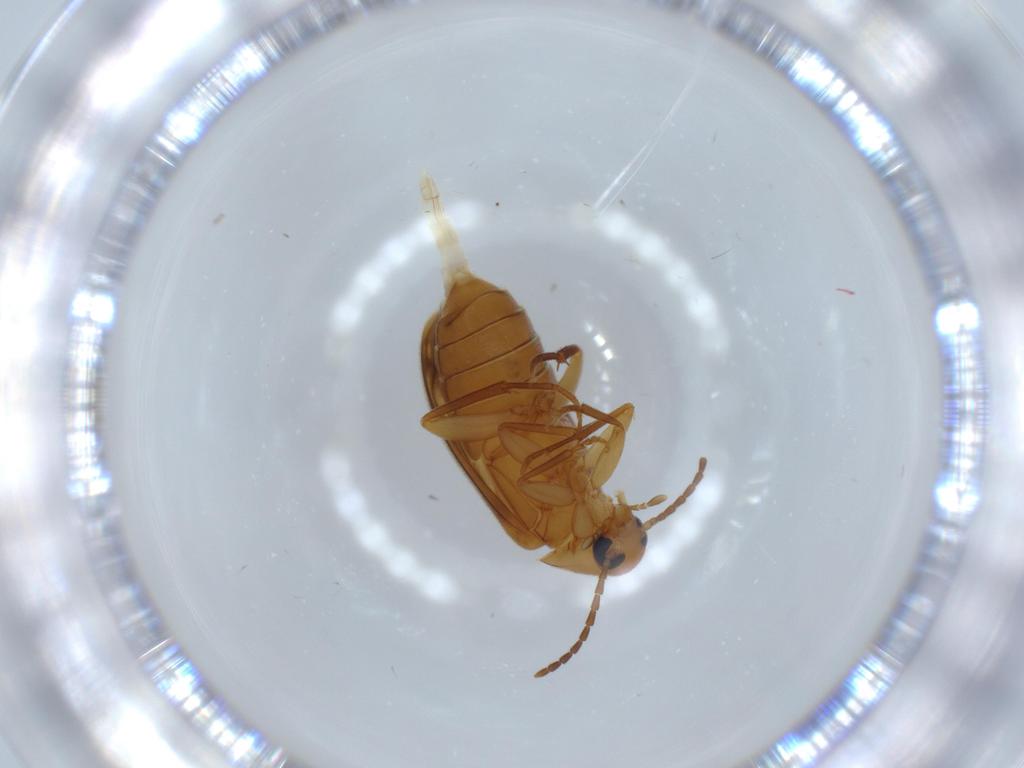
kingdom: Animalia
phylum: Arthropoda
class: Insecta
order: Coleoptera
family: Scraptiidae
